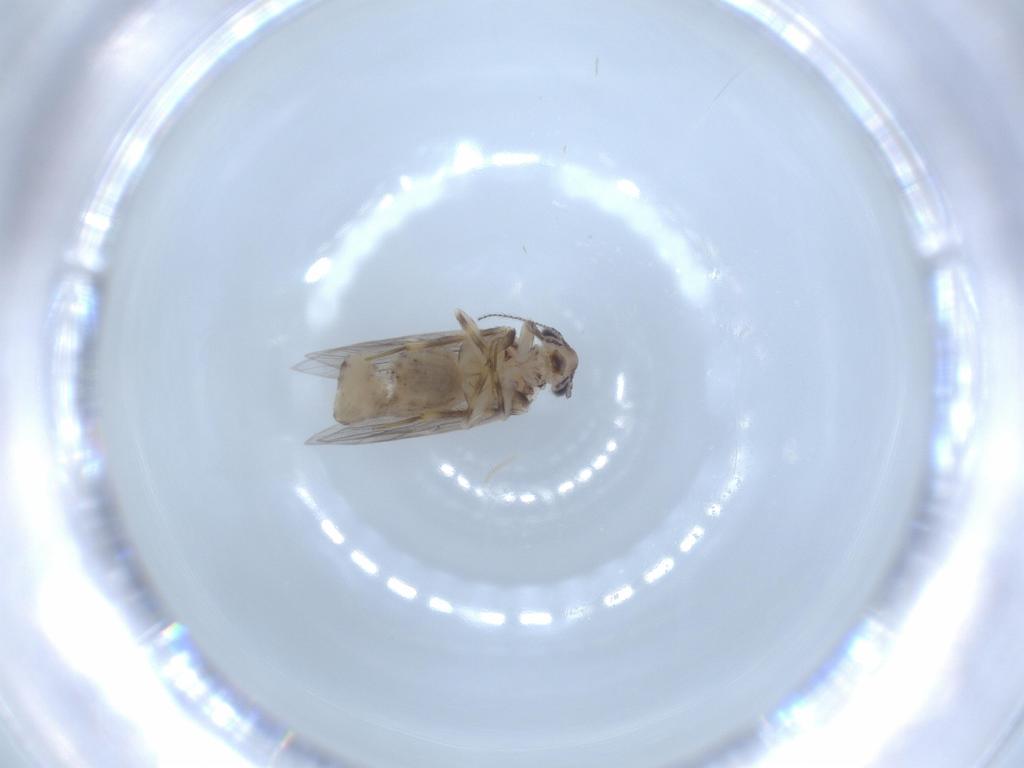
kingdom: Animalia
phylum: Arthropoda
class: Insecta
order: Psocodea
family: Lepidopsocidae
